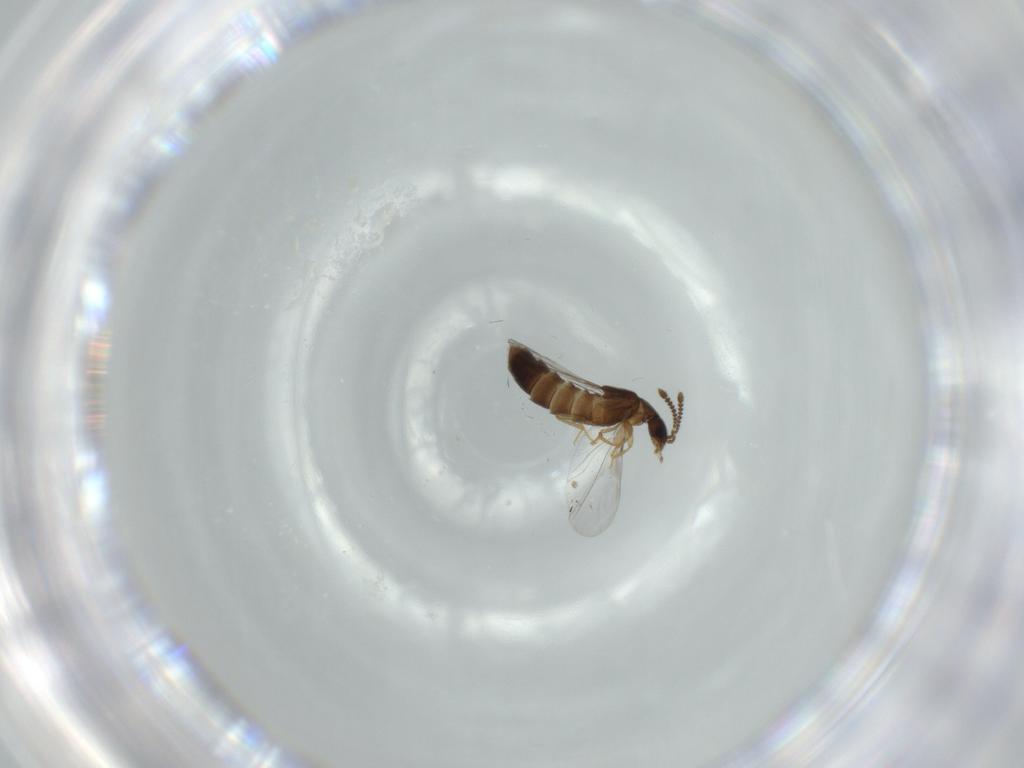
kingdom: Animalia
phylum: Arthropoda
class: Insecta
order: Coleoptera
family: Staphylinidae
